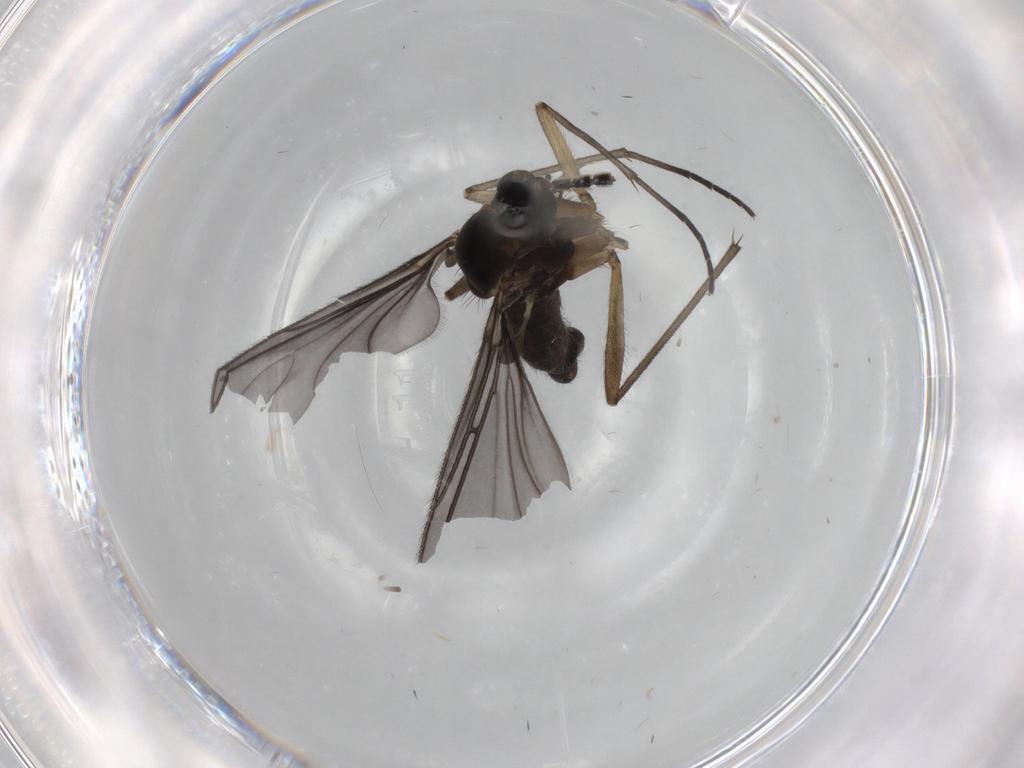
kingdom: Animalia
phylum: Arthropoda
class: Insecta
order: Diptera
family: Sciaridae
